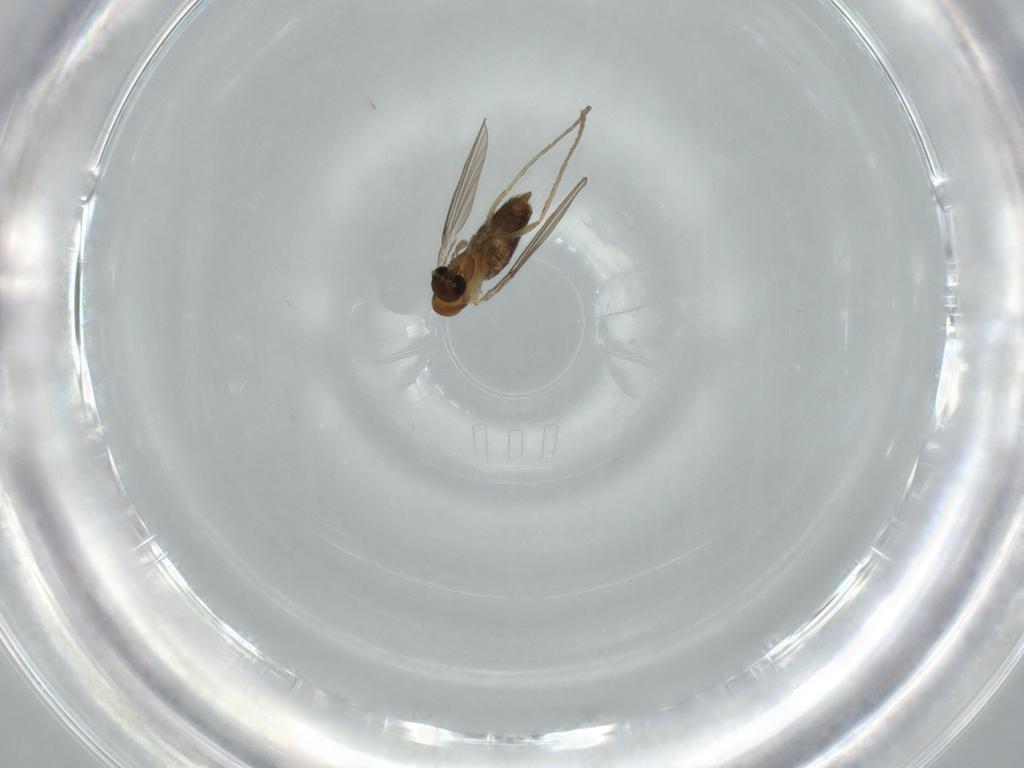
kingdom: Animalia
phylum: Arthropoda
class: Insecta
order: Diptera
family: Psychodidae
